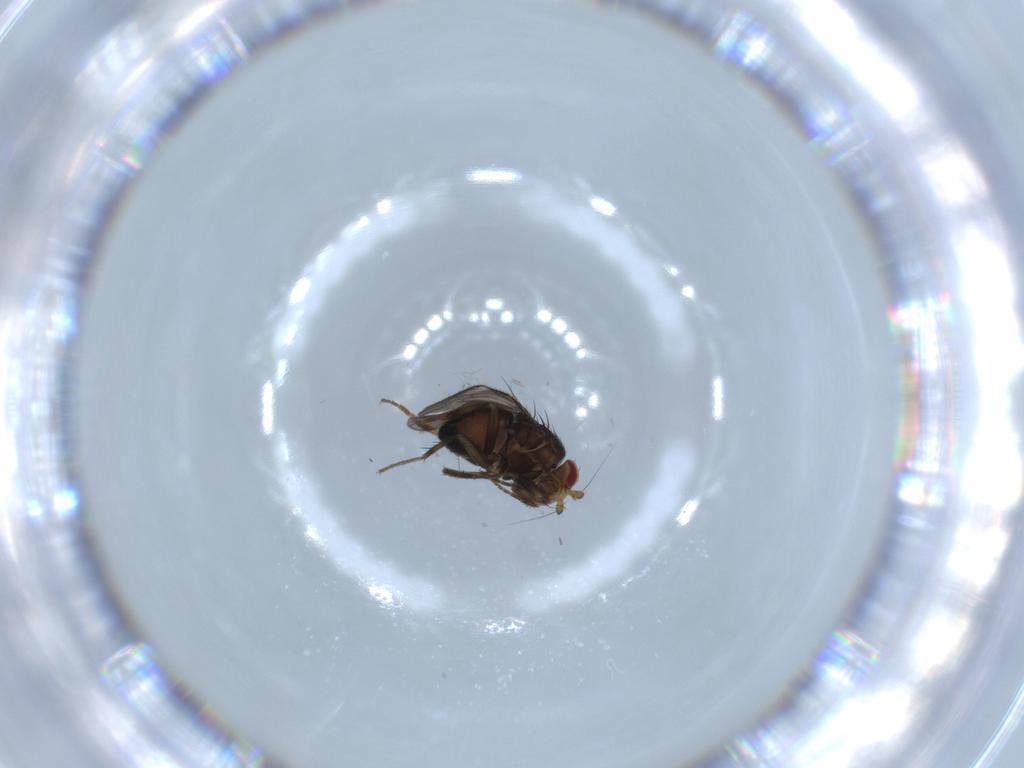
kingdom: Animalia
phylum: Arthropoda
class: Insecta
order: Diptera
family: Sphaeroceridae
